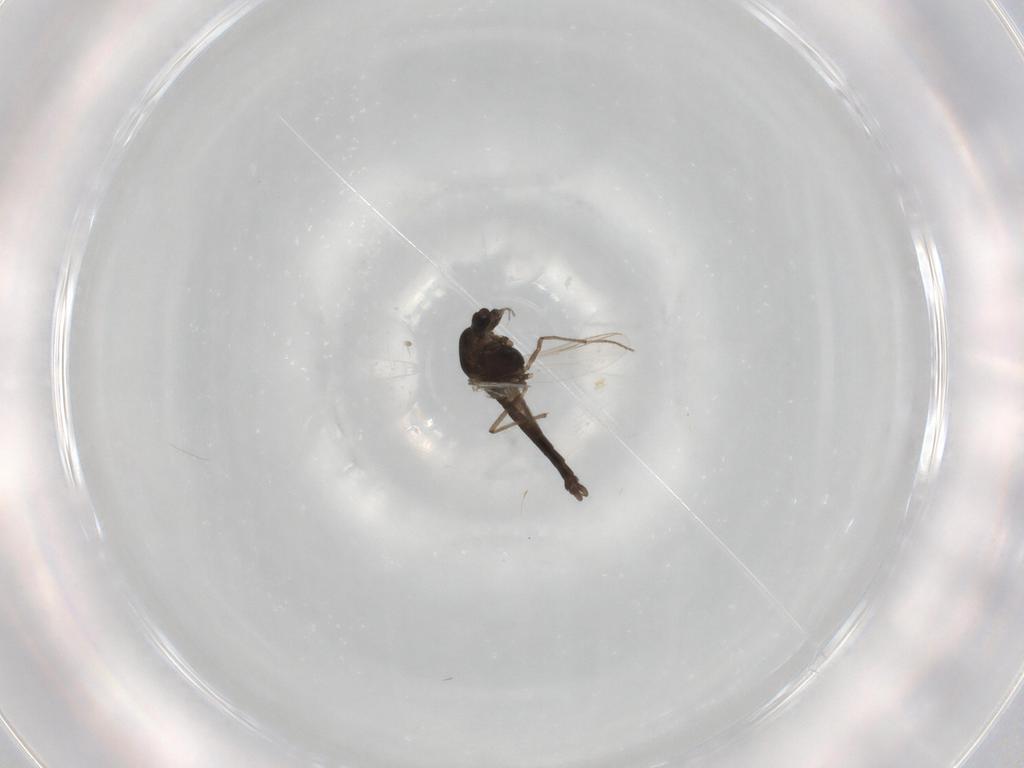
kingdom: Animalia
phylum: Arthropoda
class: Insecta
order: Diptera
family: Chironomidae
